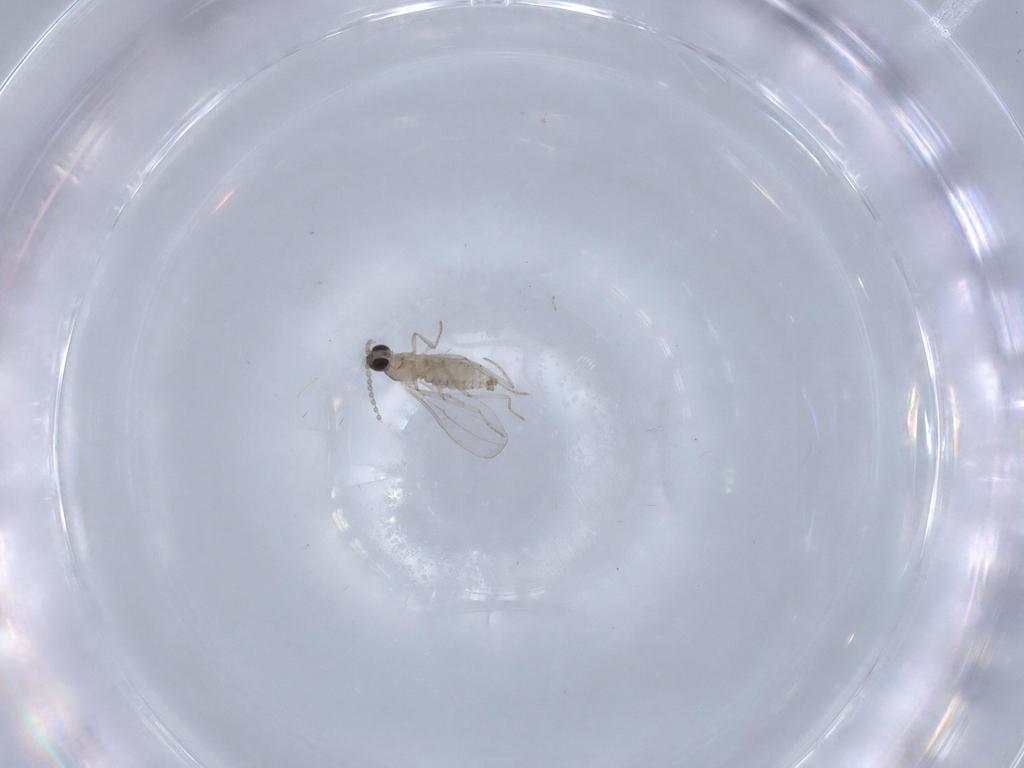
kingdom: Animalia
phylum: Arthropoda
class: Insecta
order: Diptera
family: Cecidomyiidae
